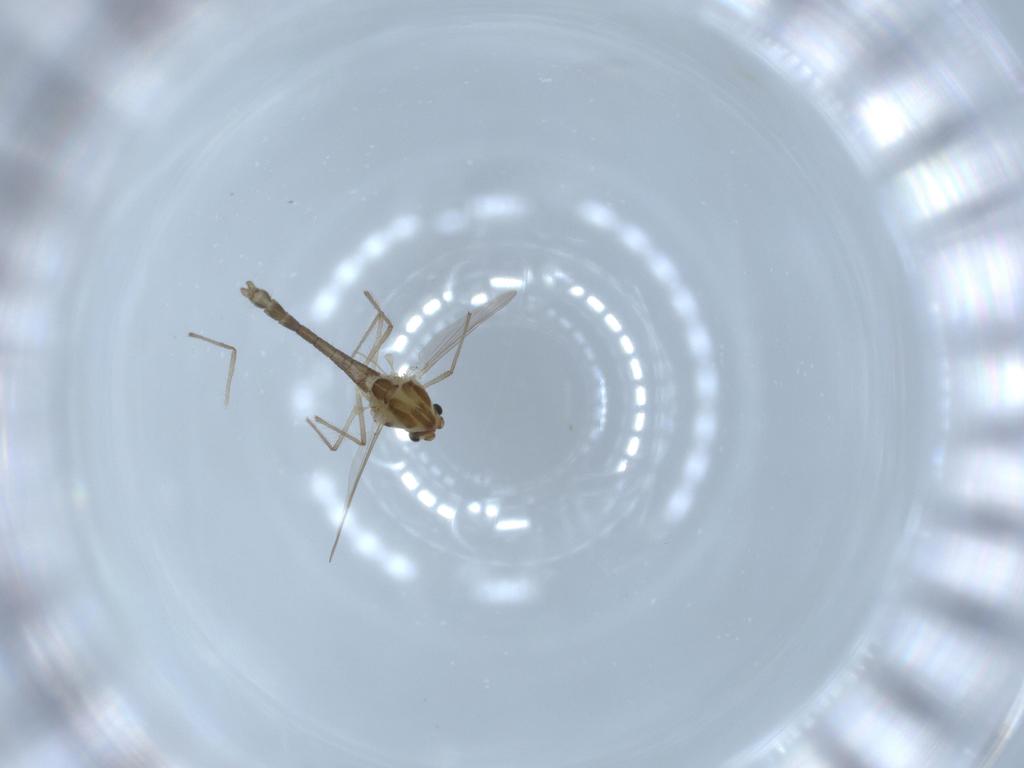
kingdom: Animalia
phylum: Arthropoda
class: Insecta
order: Diptera
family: Chironomidae
